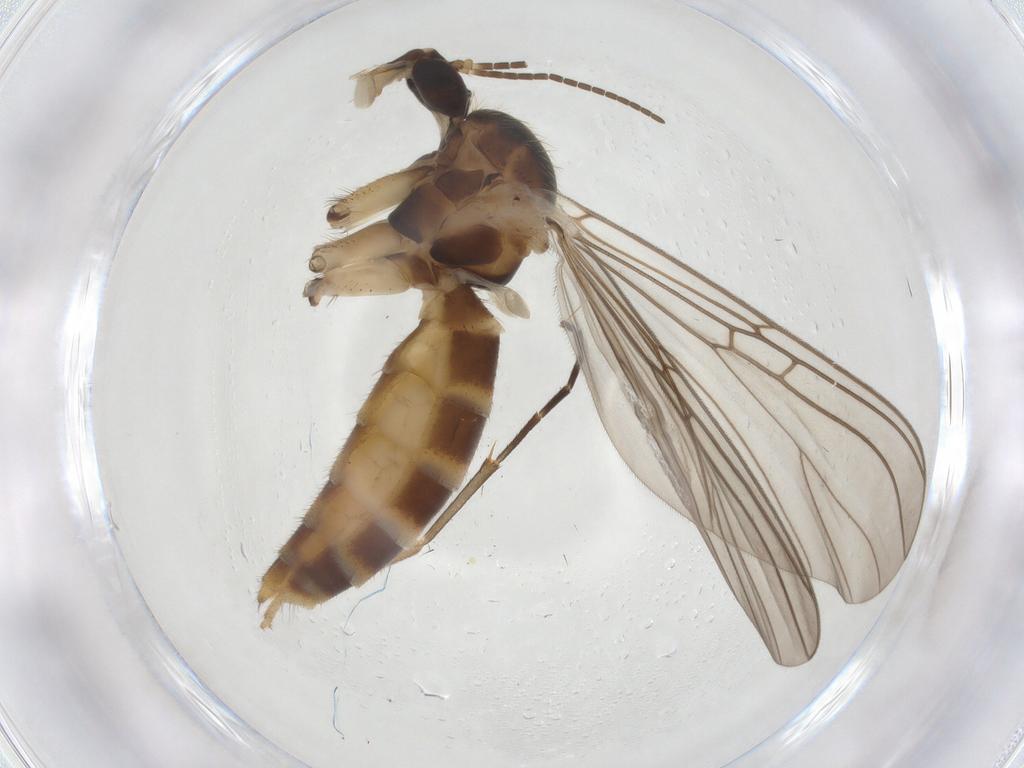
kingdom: Animalia
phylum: Arthropoda
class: Insecta
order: Diptera
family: Mycetophilidae
